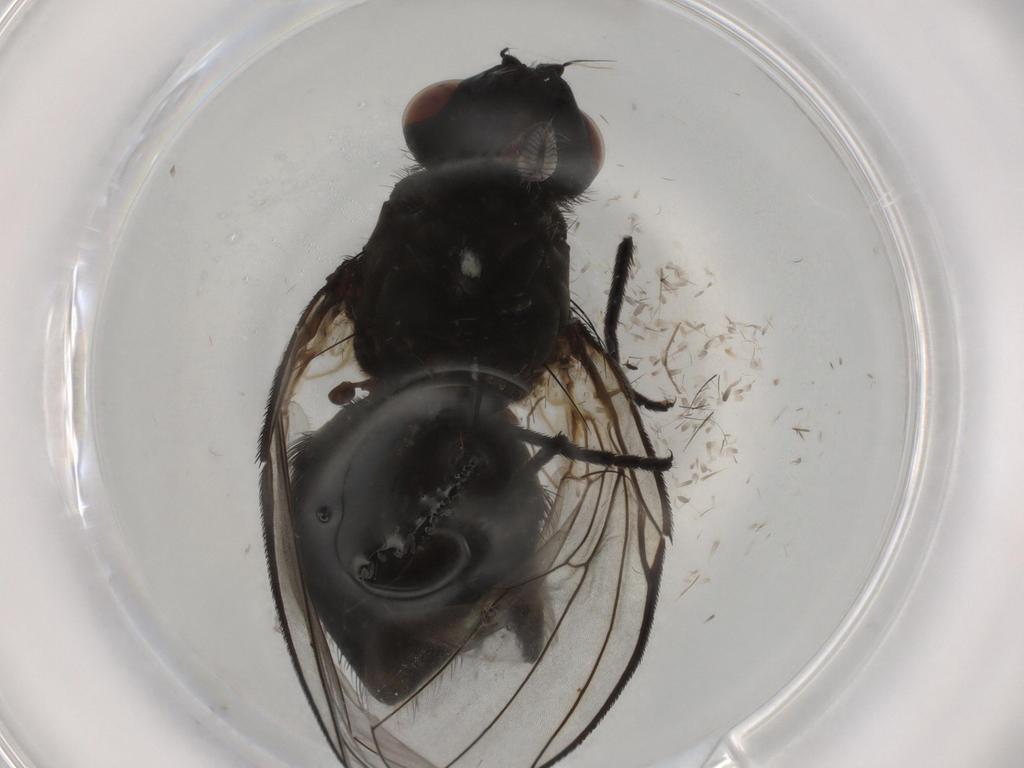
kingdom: Animalia
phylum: Arthropoda
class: Insecta
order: Diptera
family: Muscidae
